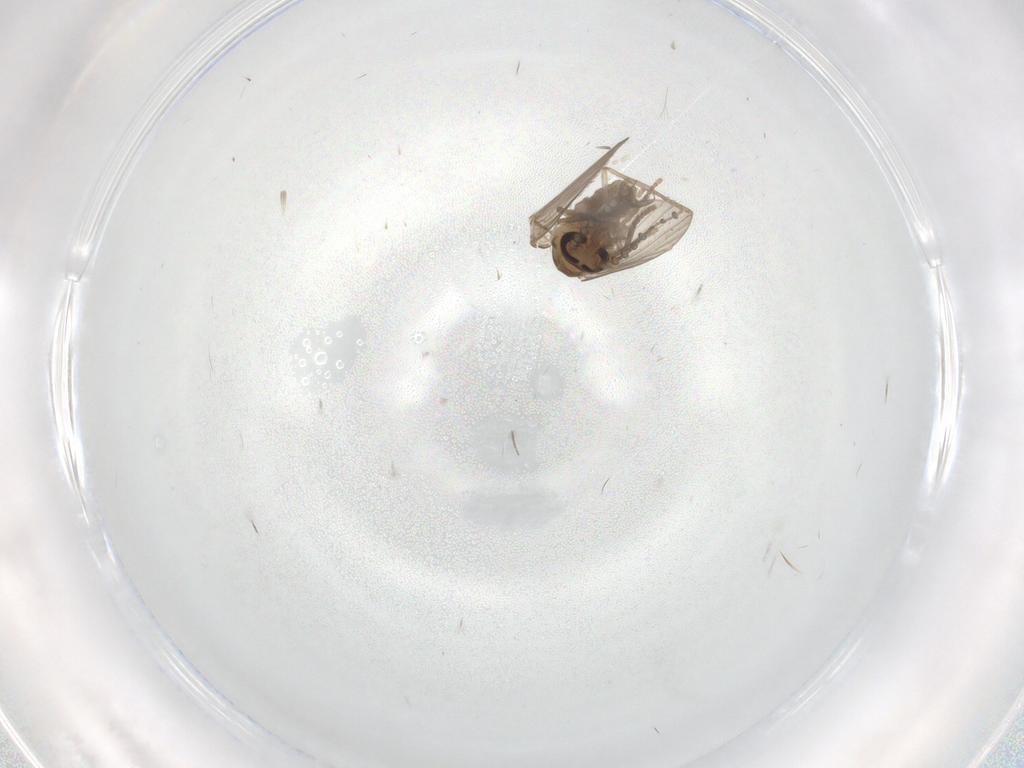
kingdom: Animalia
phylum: Arthropoda
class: Insecta
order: Diptera
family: Psychodidae
